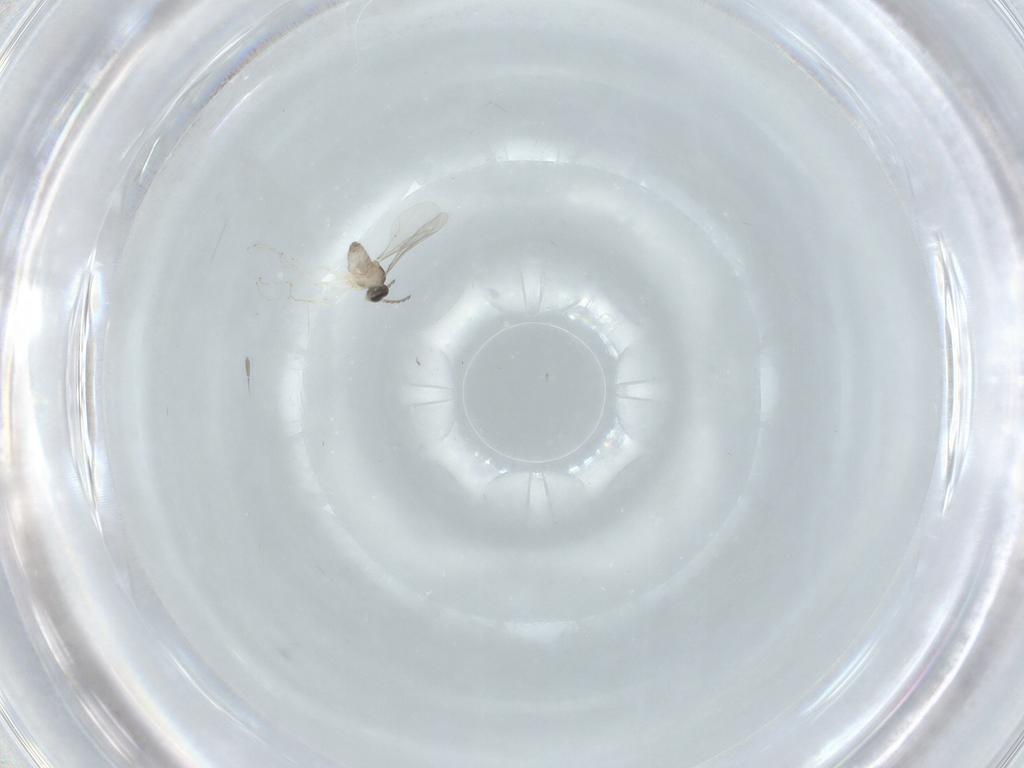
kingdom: Animalia
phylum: Arthropoda
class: Insecta
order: Diptera
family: Cecidomyiidae
